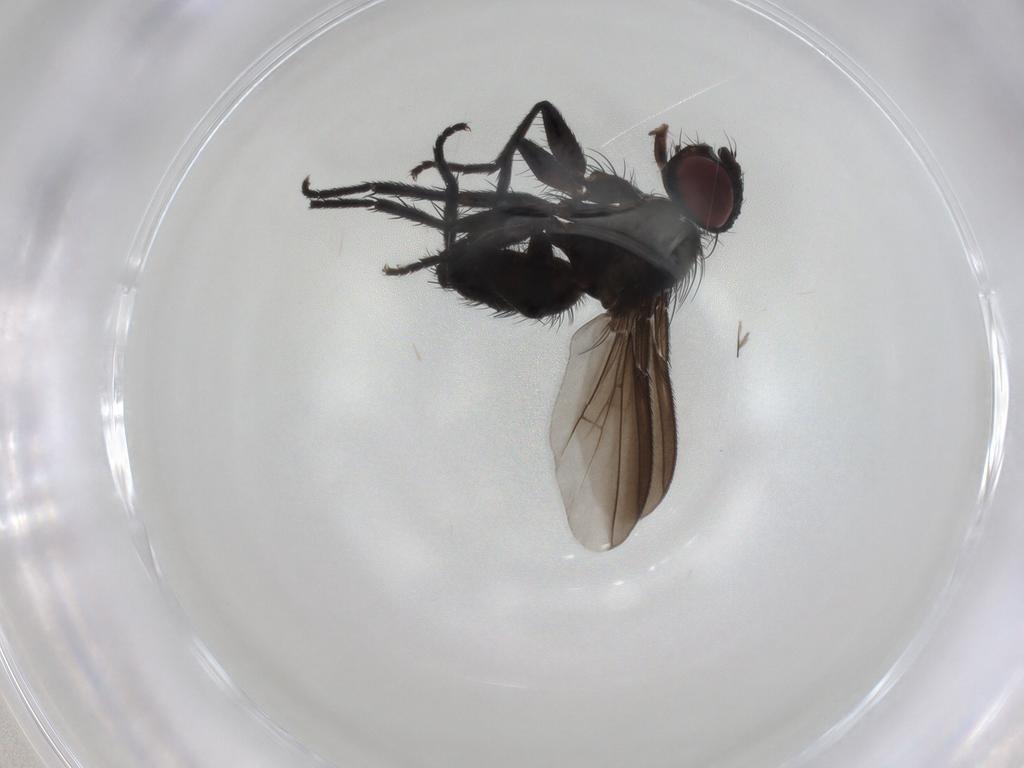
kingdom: Animalia
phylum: Arthropoda
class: Insecta
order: Diptera
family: Tachinidae
